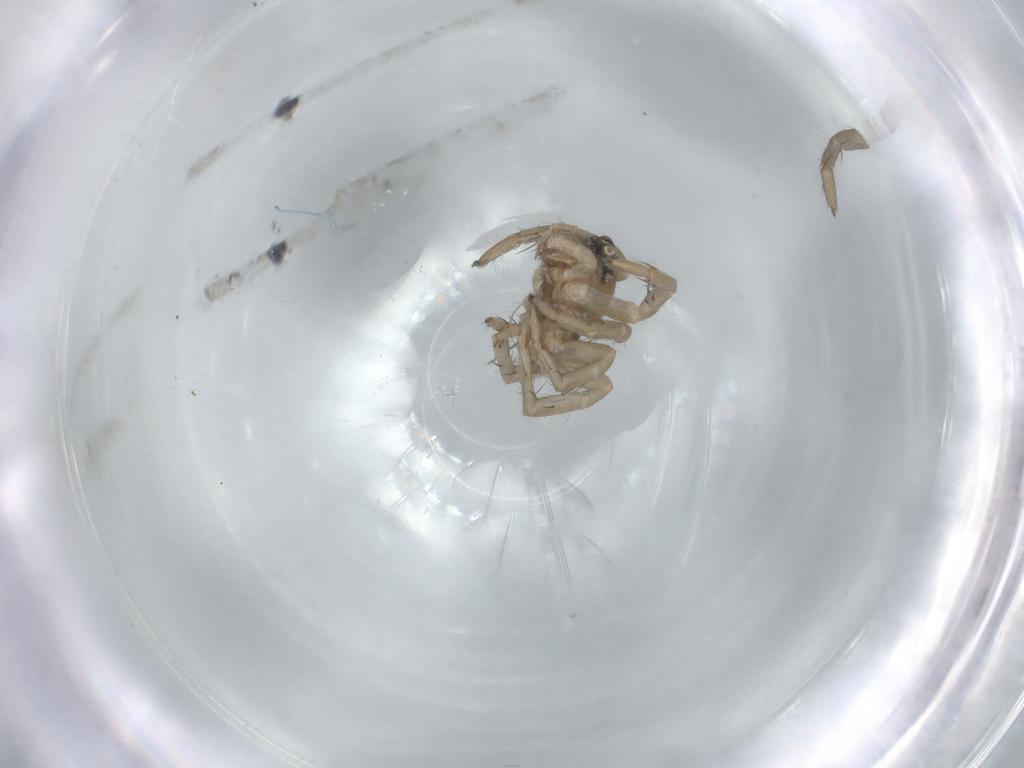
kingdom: Animalia
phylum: Arthropoda
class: Arachnida
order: Araneae
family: Lycosidae
